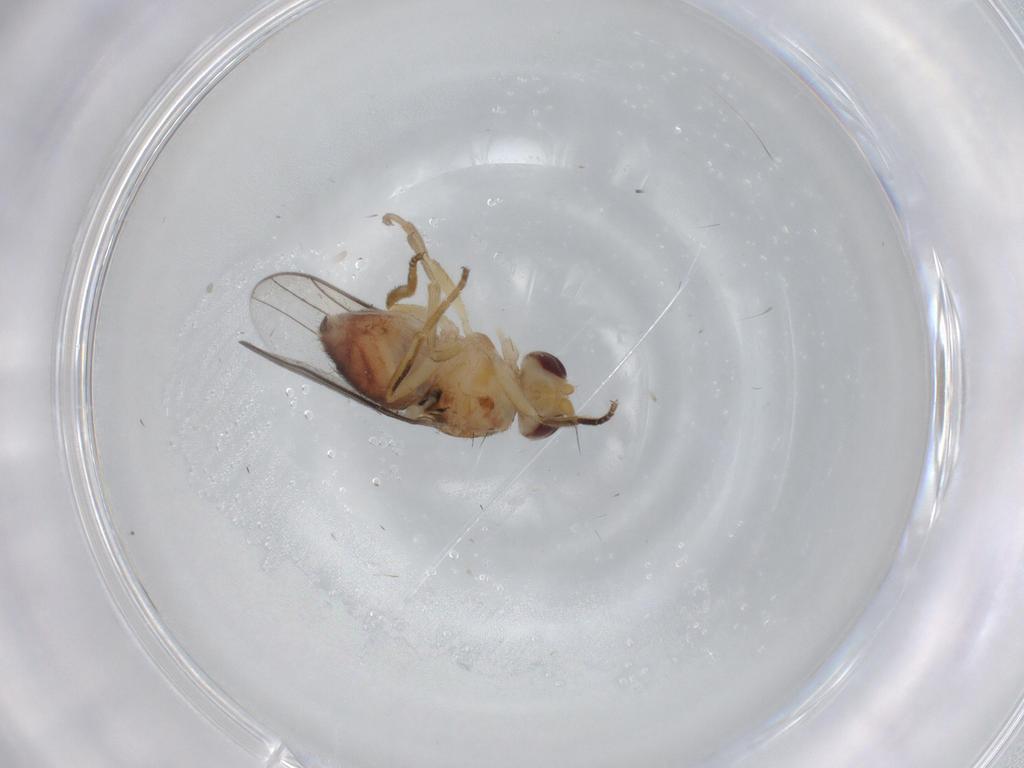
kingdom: Animalia
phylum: Arthropoda
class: Insecta
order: Diptera
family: Chloropidae
